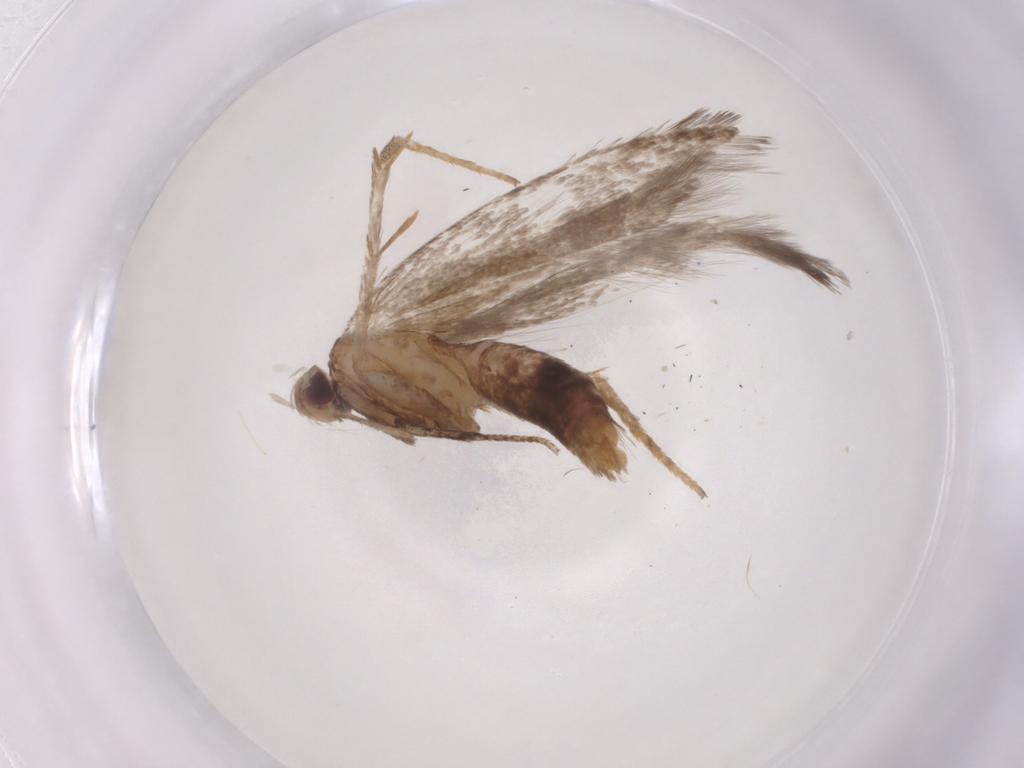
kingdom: Animalia
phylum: Arthropoda
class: Insecta
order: Lepidoptera
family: Gelechiidae
